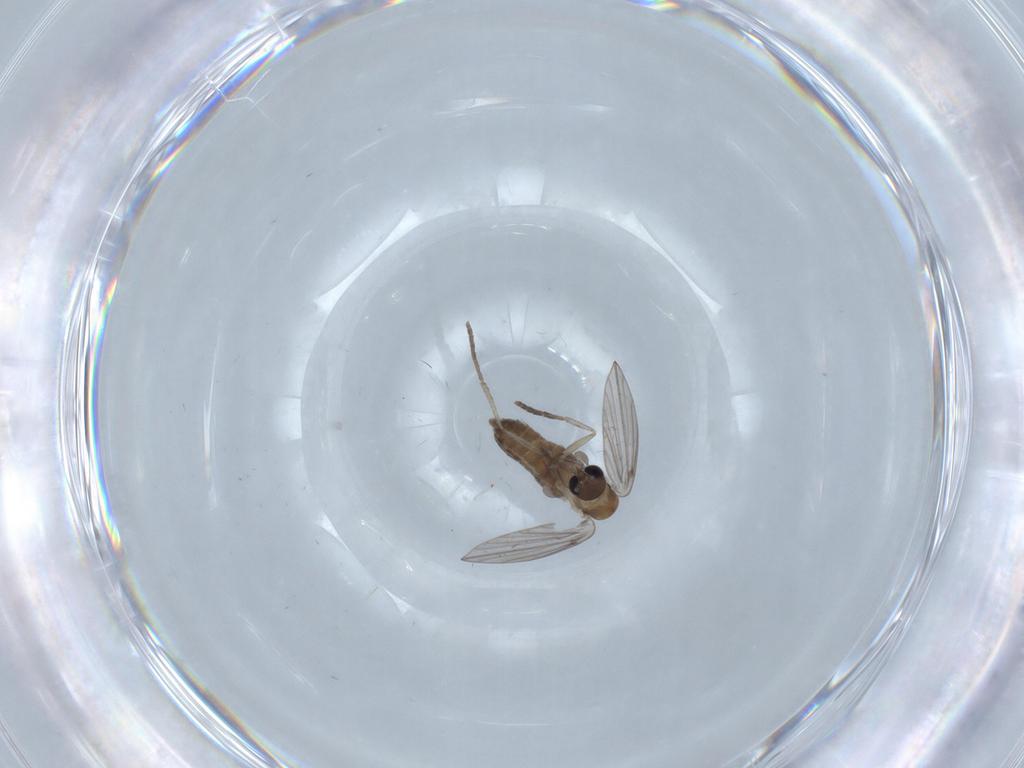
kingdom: Animalia
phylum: Arthropoda
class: Insecta
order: Diptera
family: Psychodidae
